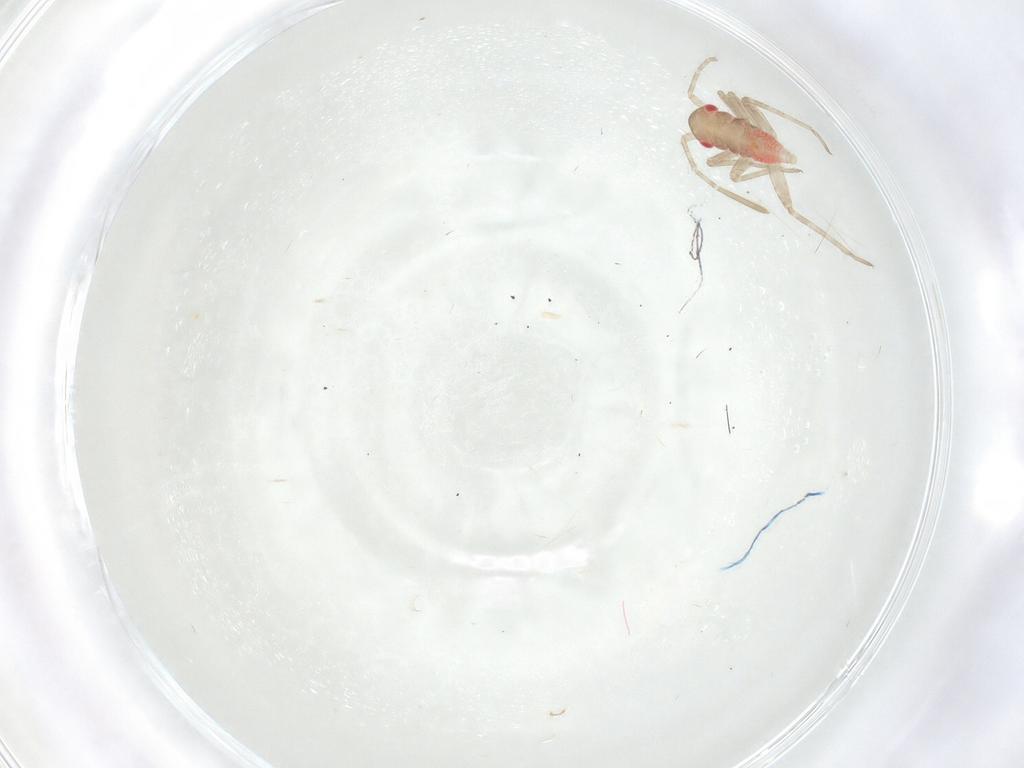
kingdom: Animalia
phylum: Arthropoda
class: Insecta
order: Hemiptera
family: Miridae
